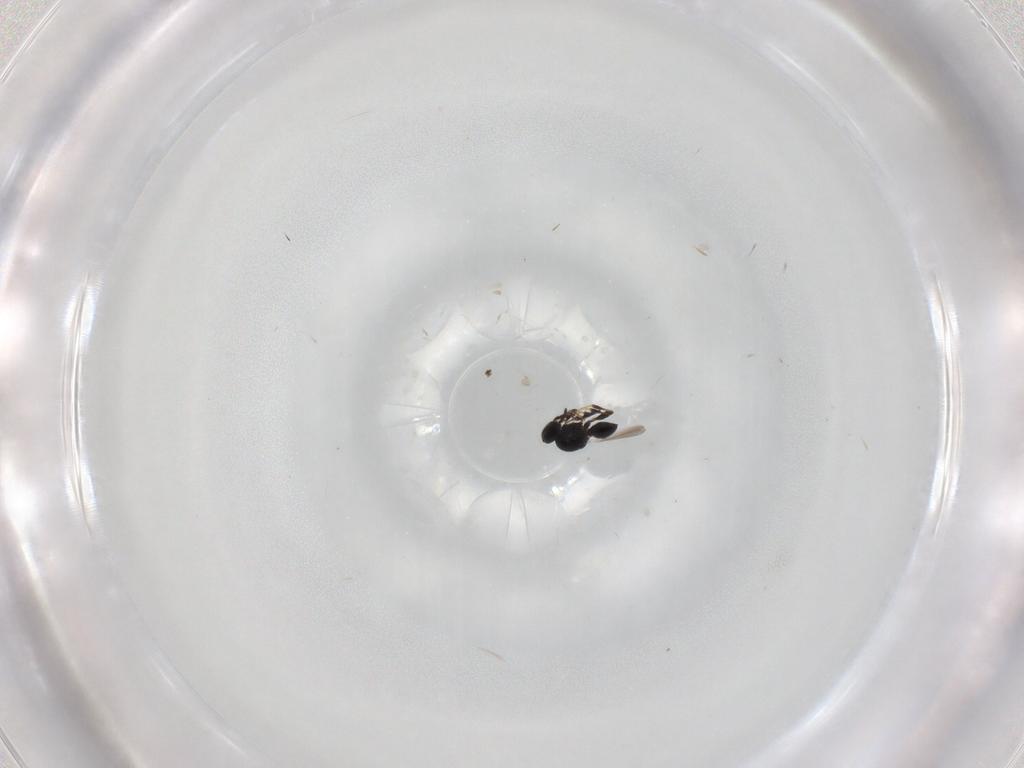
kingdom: Animalia
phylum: Arthropoda
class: Insecta
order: Hymenoptera
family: Platygastridae
